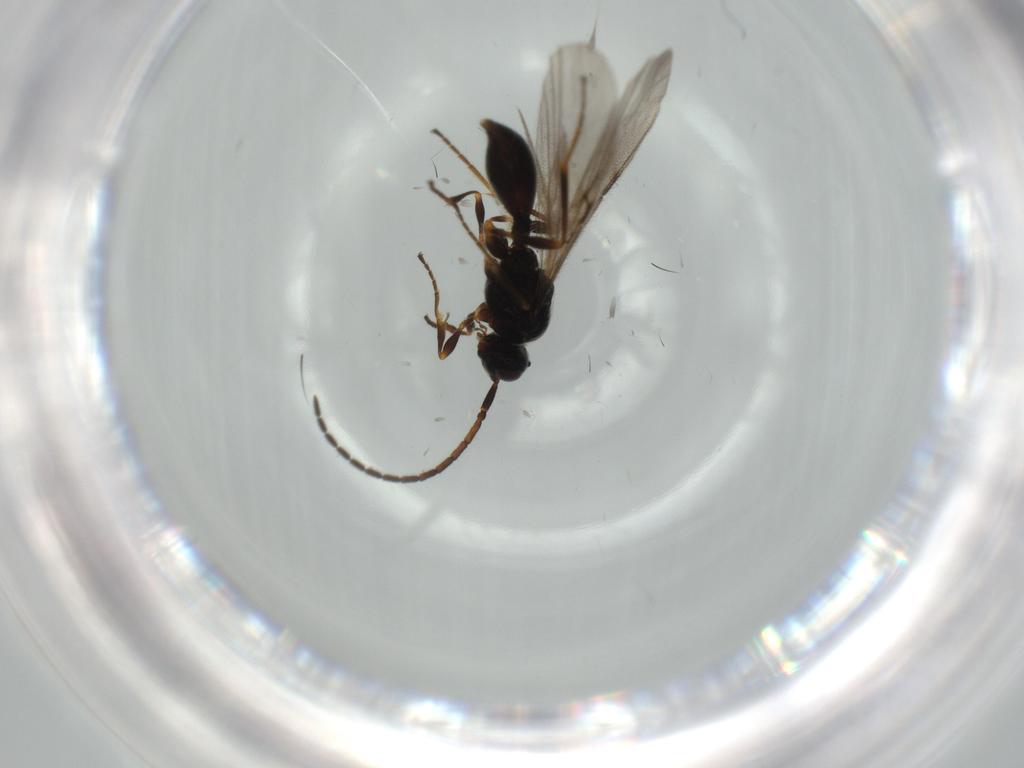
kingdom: Animalia
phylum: Arthropoda
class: Insecta
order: Hymenoptera
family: Diapriidae
